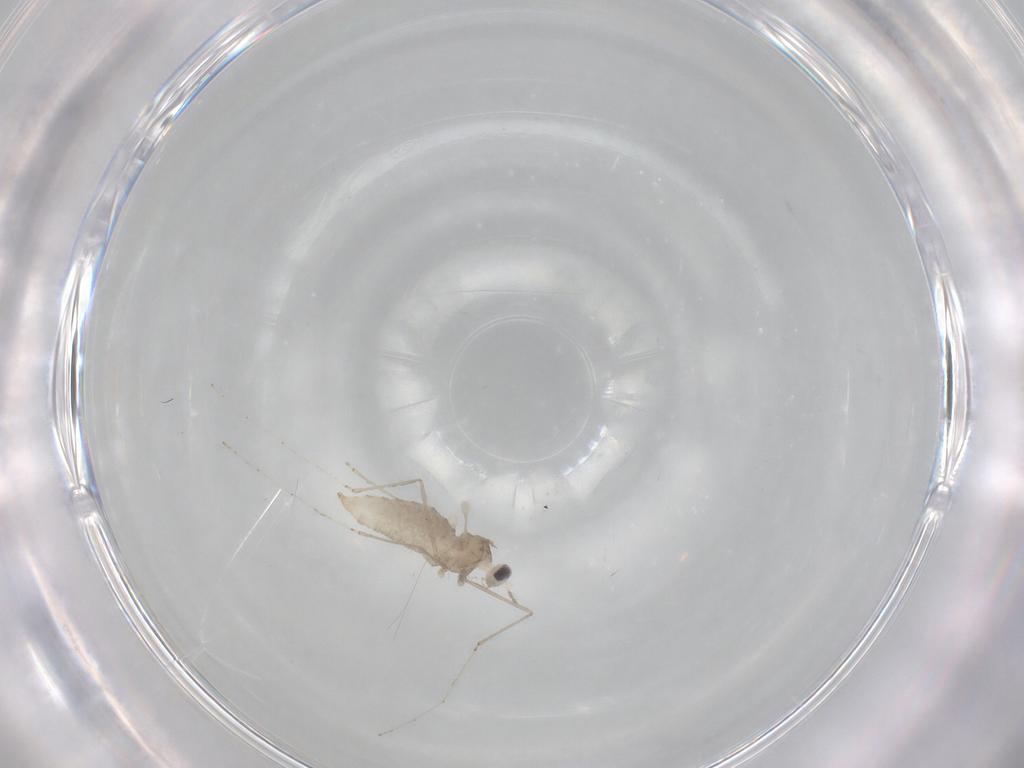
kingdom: Animalia
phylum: Arthropoda
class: Insecta
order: Diptera
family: Cecidomyiidae
